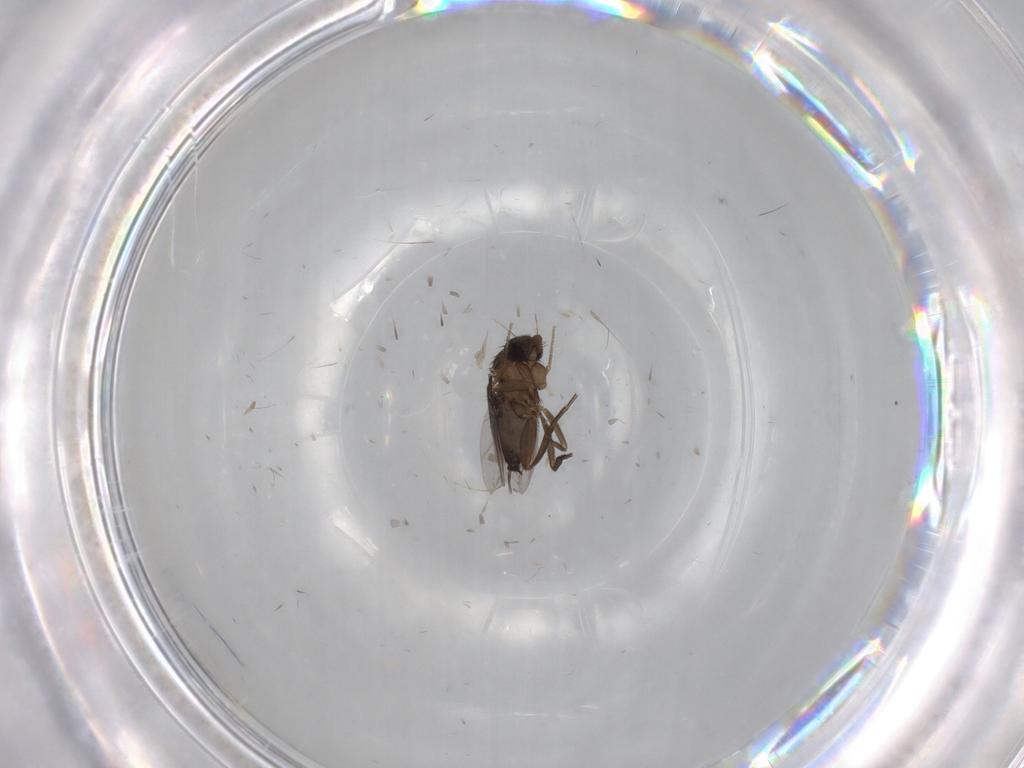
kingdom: Animalia
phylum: Arthropoda
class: Insecta
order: Diptera
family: Phoridae
